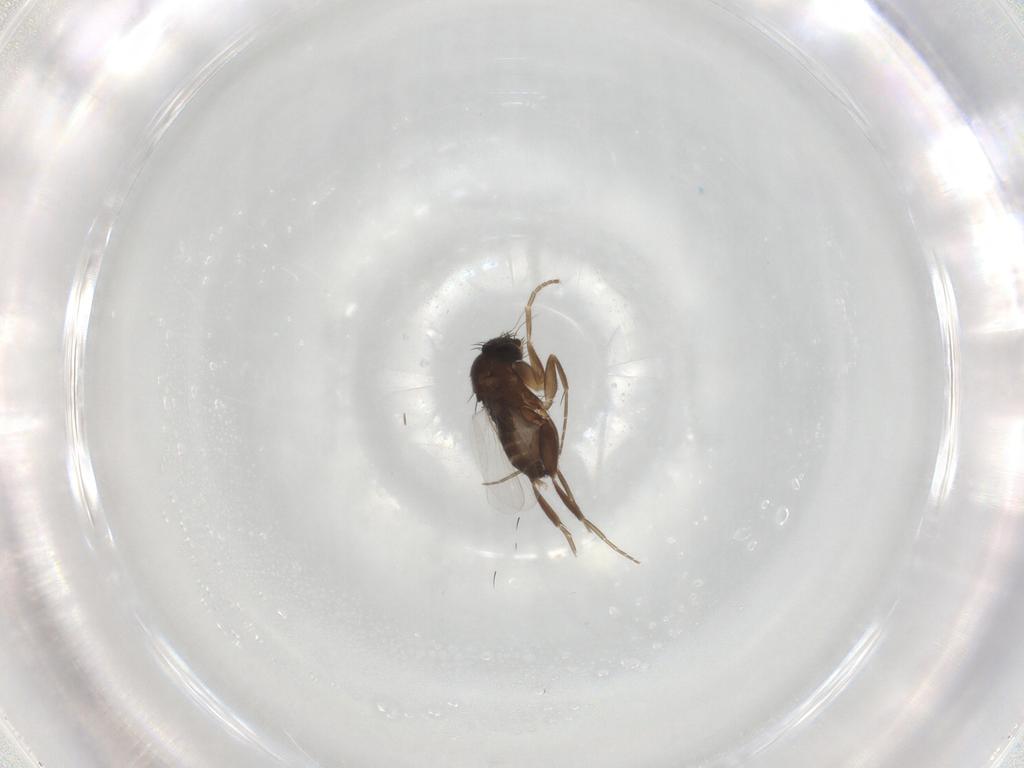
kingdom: Animalia
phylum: Arthropoda
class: Insecta
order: Diptera
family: Phoridae
